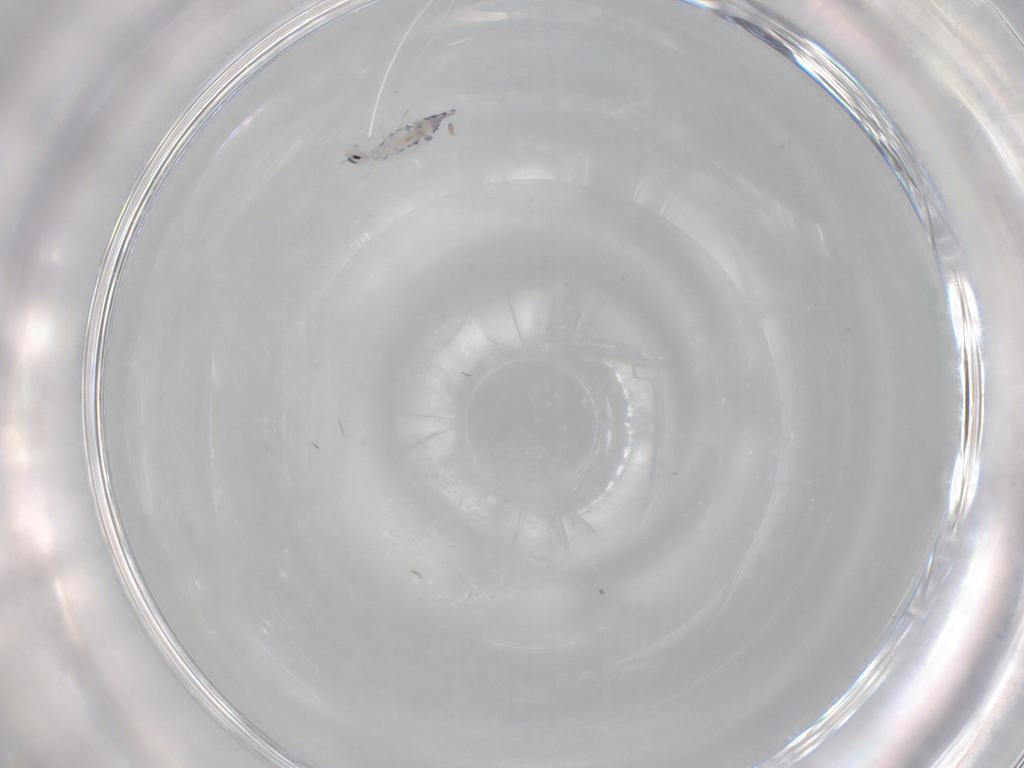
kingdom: Animalia
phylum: Arthropoda
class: Collembola
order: Entomobryomorpha
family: Entomobryidae
